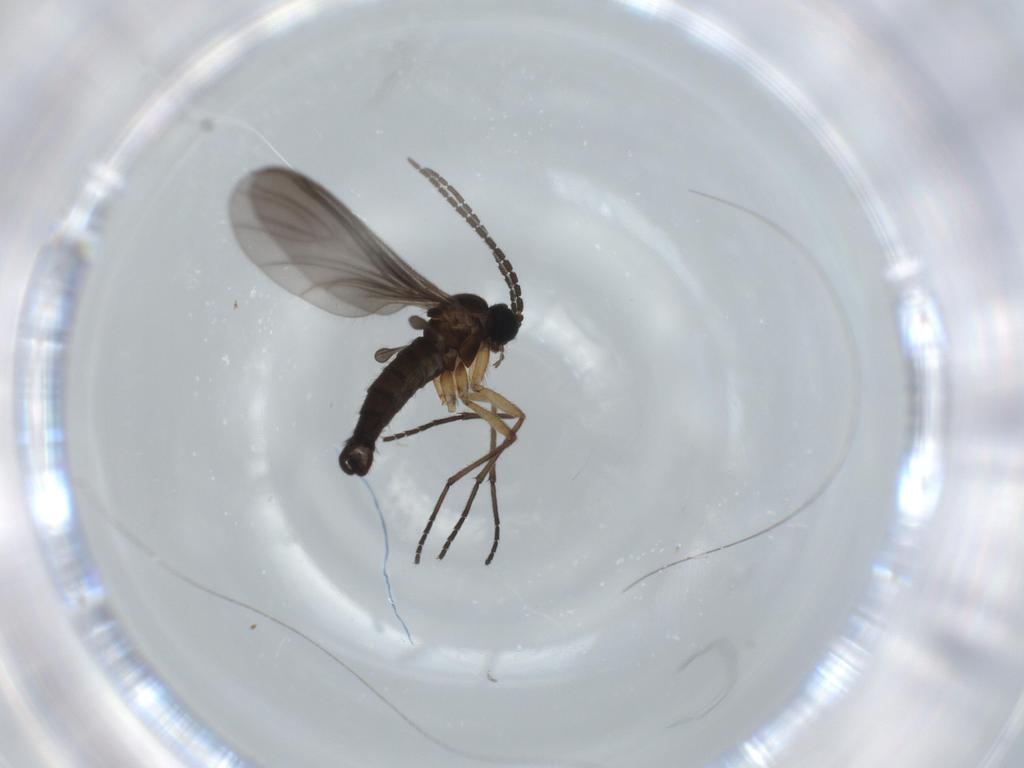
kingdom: Animalia
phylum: Arthropoda
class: Insecta
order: Diptera
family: Sciaridae
